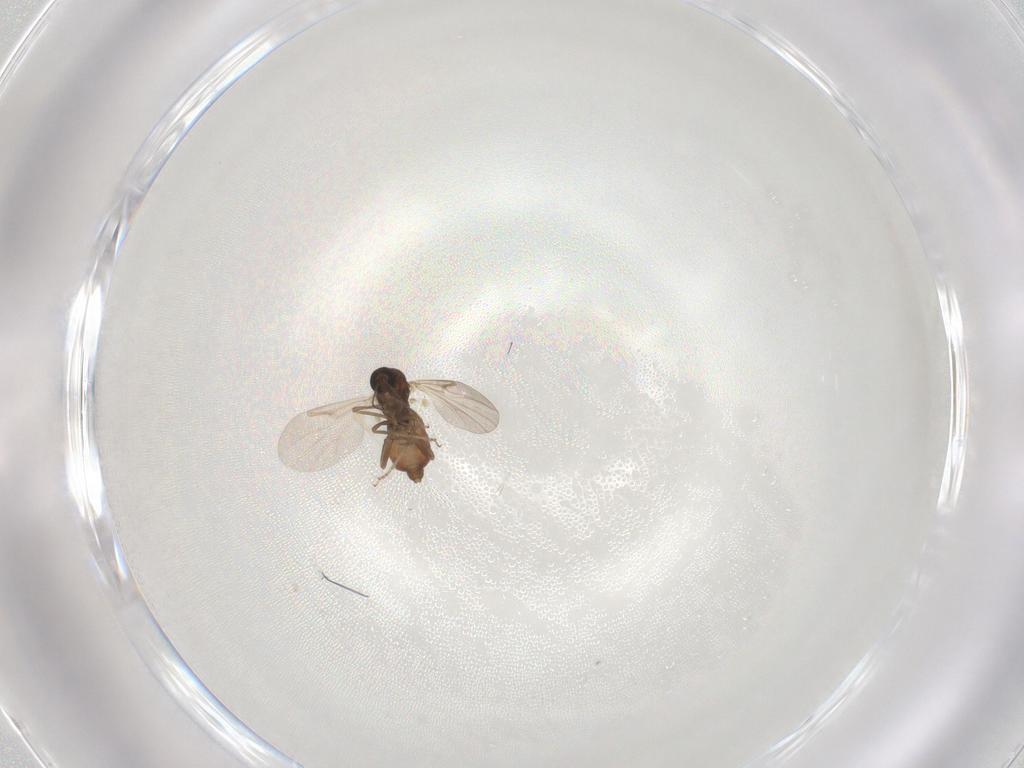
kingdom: Animalia
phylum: Arthropoda
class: Insecta
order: Diptera
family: Ceratopogonidae
